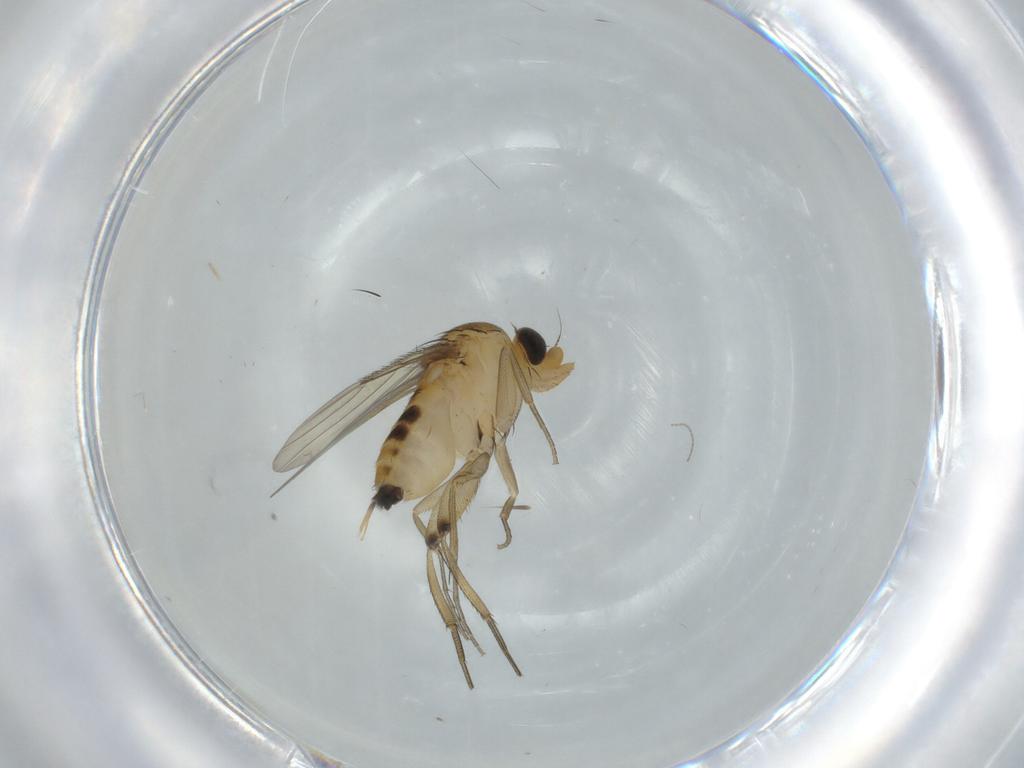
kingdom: Animalia
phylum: Arthropoda
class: Insecta
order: Diptera
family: Phoridae
